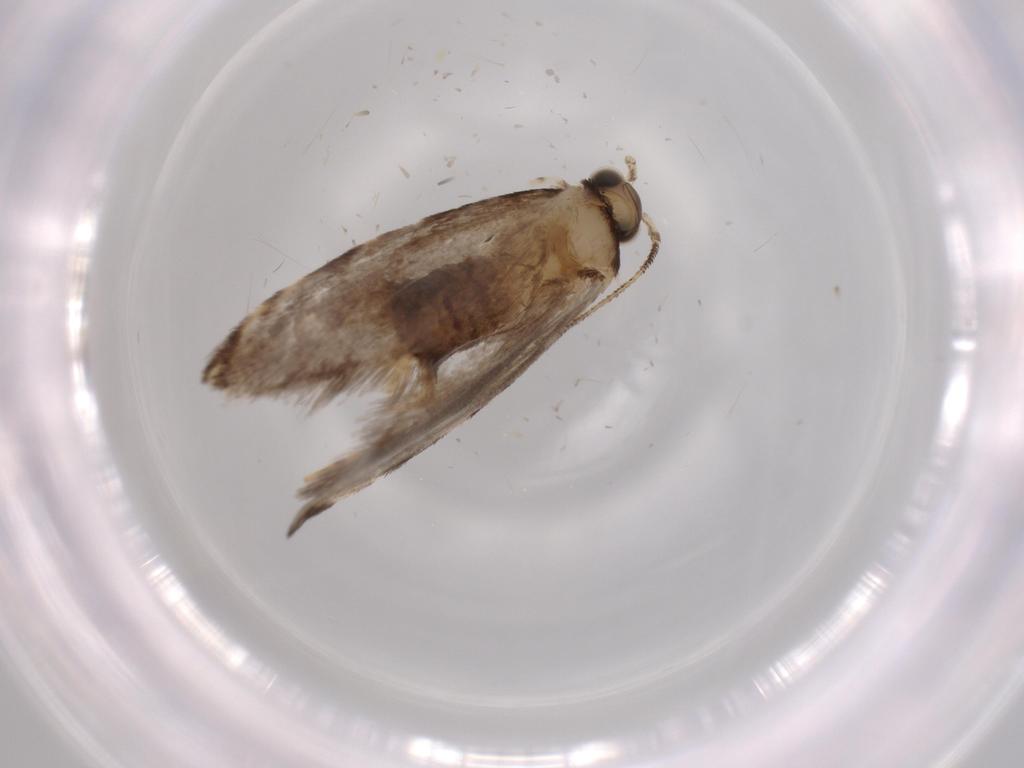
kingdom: Animalia
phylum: Arthropoda
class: Insecta
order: Lepidoptera
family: Tineidae
